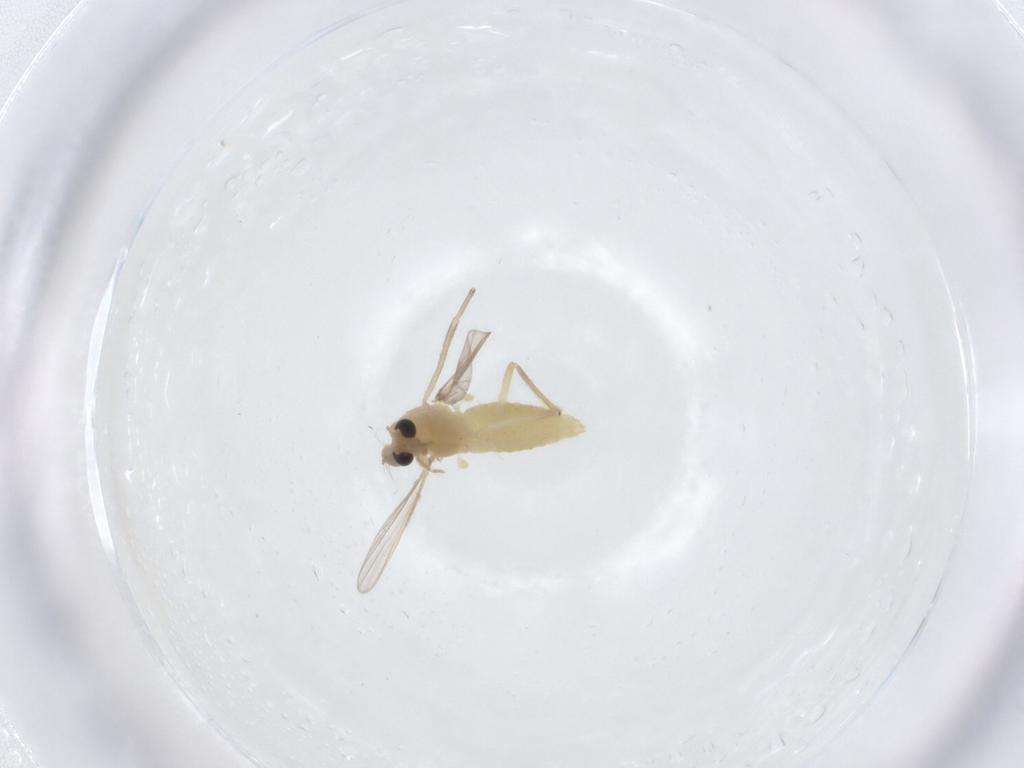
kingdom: Animalia
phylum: Arthropoda
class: Insecta
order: Diptera
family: Chironomidae
